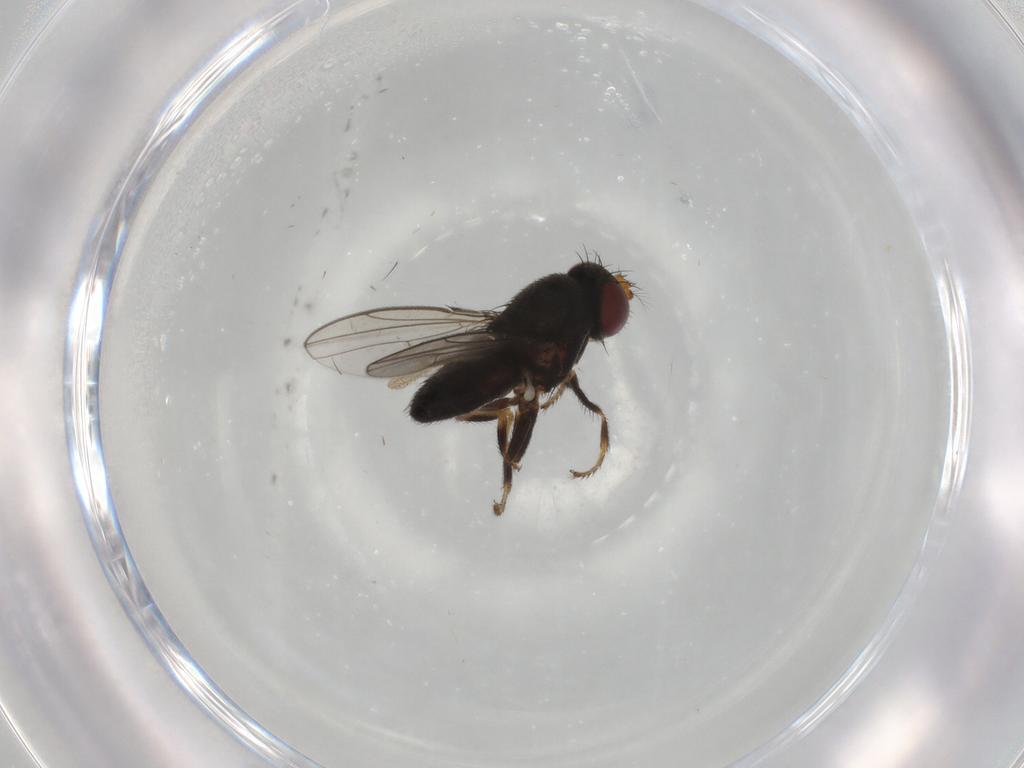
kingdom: Animalia
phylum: Arthropoda
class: Insecta
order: Diptera
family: Ephydridae
